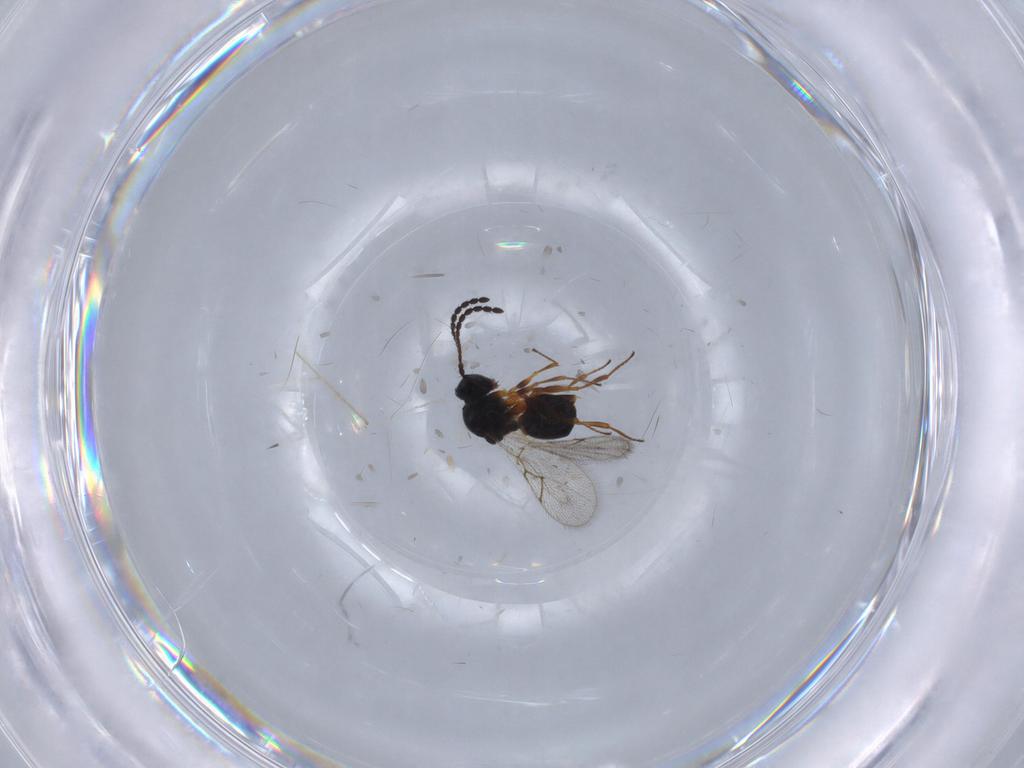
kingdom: Animalia
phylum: Arthropoda
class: Insecta
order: Hymenoptera
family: Figitidae
